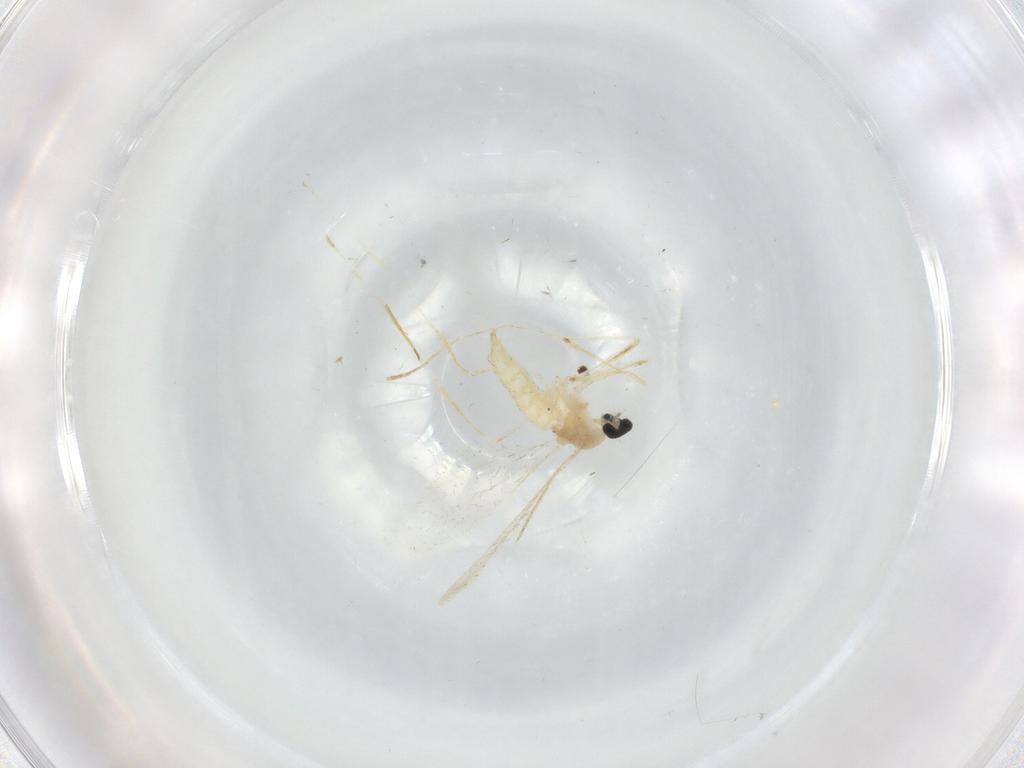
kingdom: Animalia
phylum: Arthropoda
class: Insecta
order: Diptera
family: Cecidomyiidae
